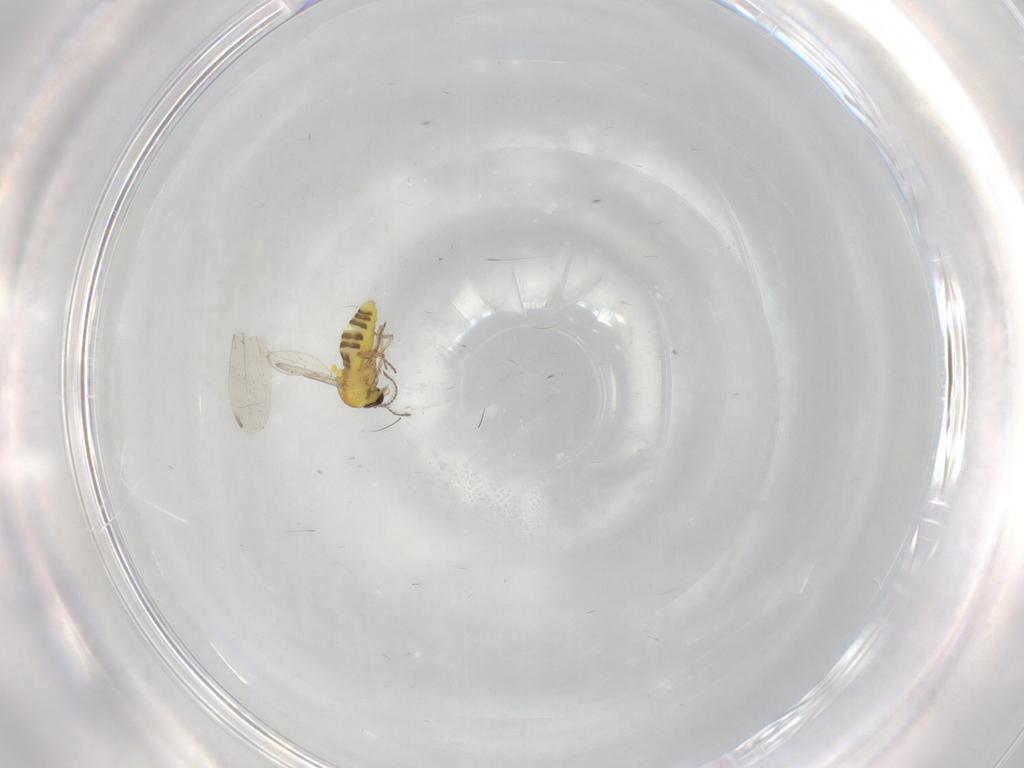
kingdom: Animalia
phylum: Arthropoda
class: Insecta
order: Diptera
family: Cecidomyiidae
